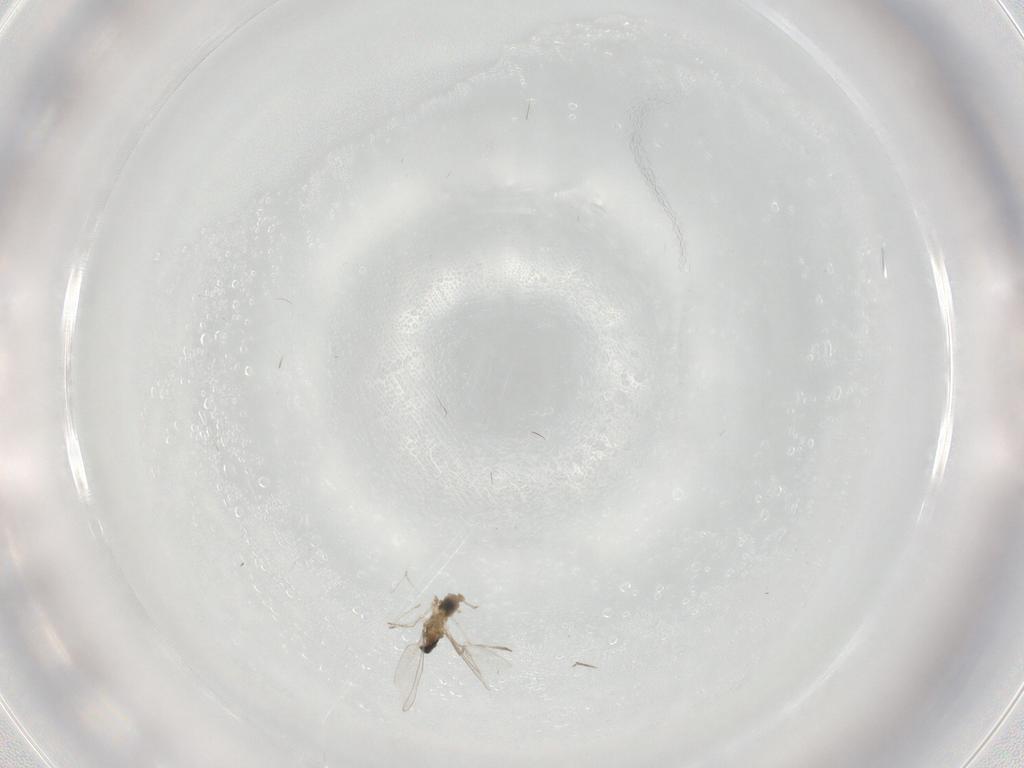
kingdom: Animalia
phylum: Arthropoda
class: Insecta
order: Diptera
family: Cecidomyiidae
